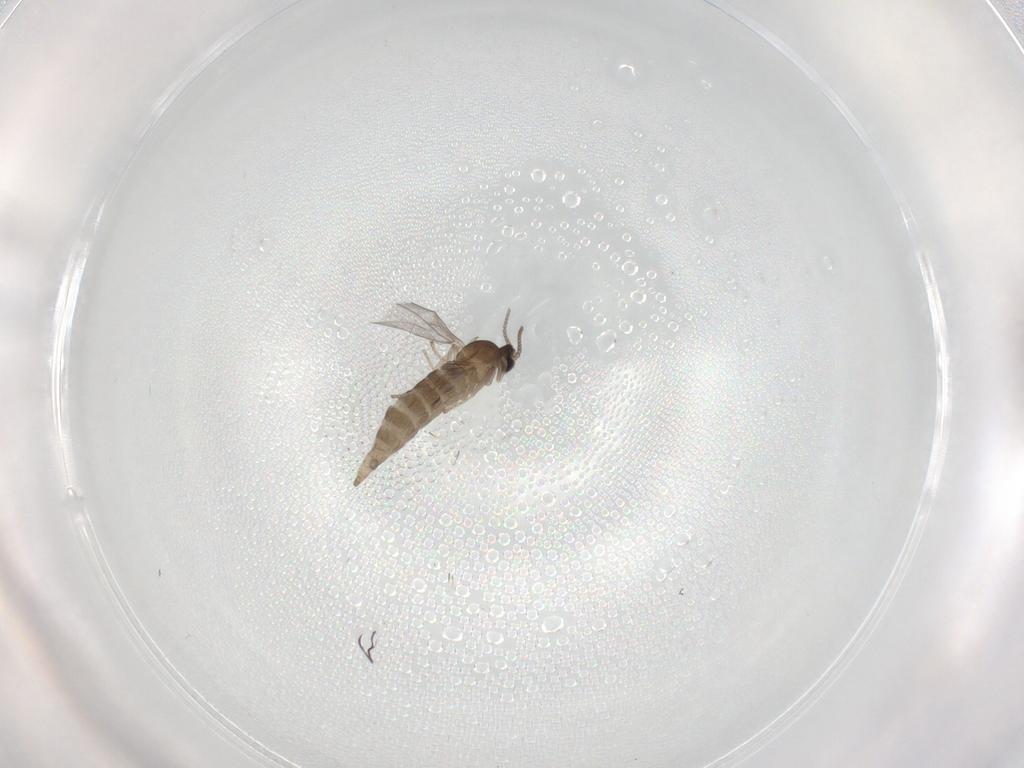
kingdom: Animalia
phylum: Arthropoda
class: Insecta
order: Diptera
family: Cecidomyiidae
